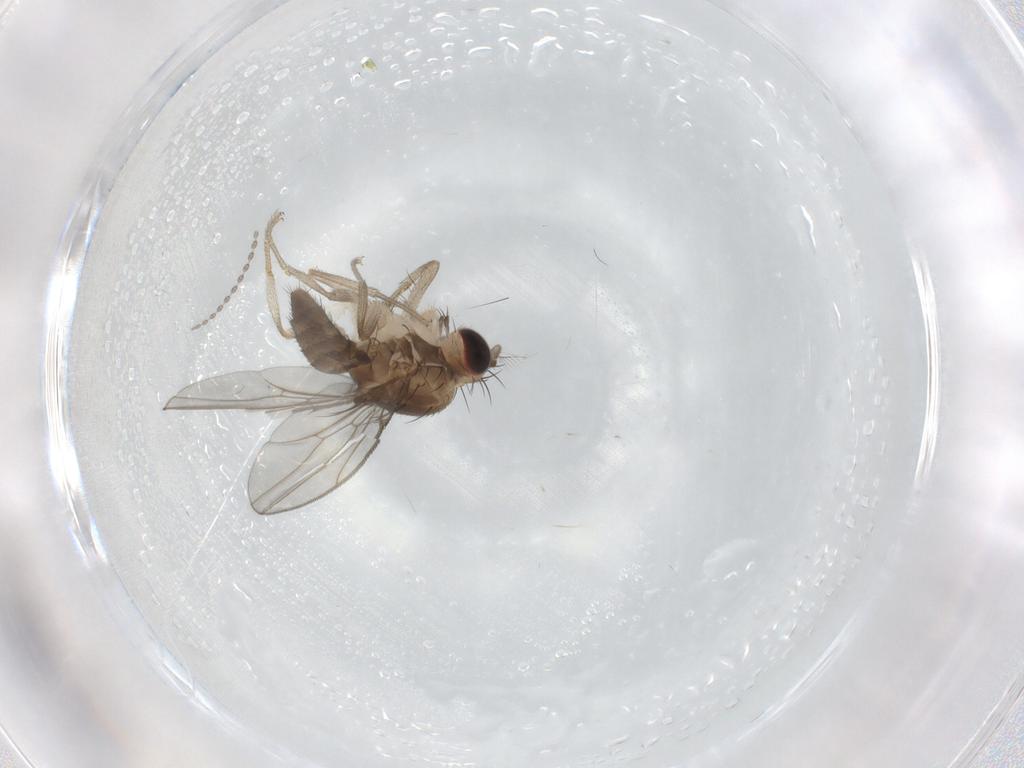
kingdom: Animalia
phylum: Arthropoda
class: Insecta
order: Diptera
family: Drosophilidae
